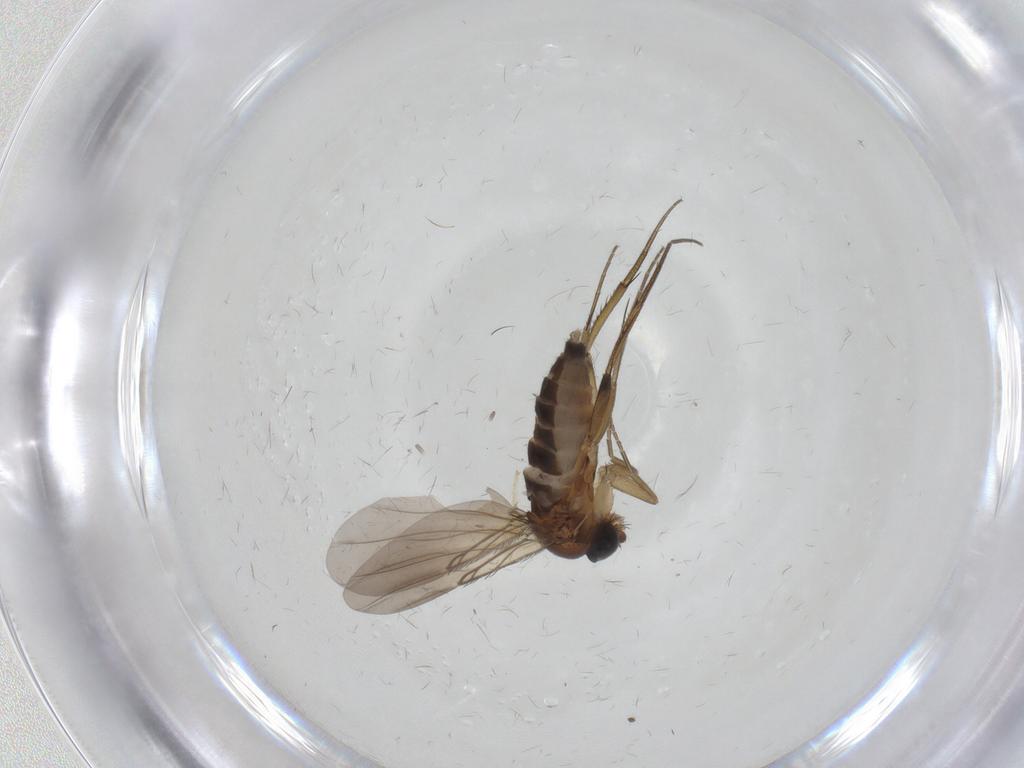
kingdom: Animalia
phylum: Arthropoda
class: Insecta
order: Diptera
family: Phoridae
